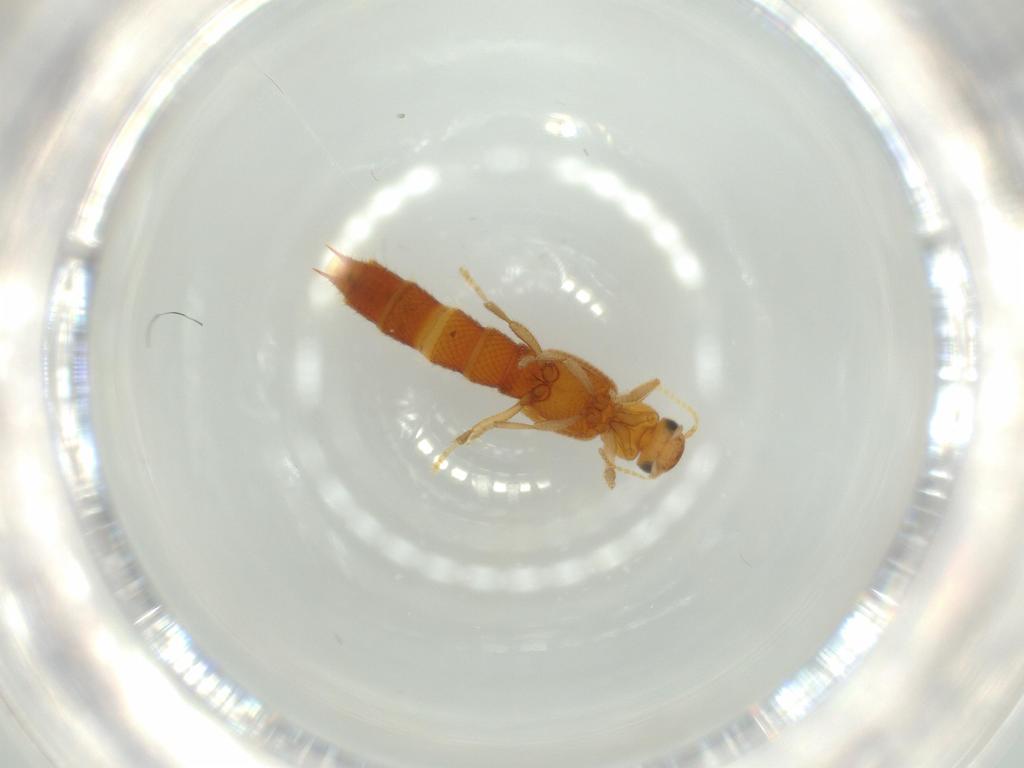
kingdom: Animalia
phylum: Arthropoda
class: Insecta
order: Coleoptera
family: Staphylinidae
